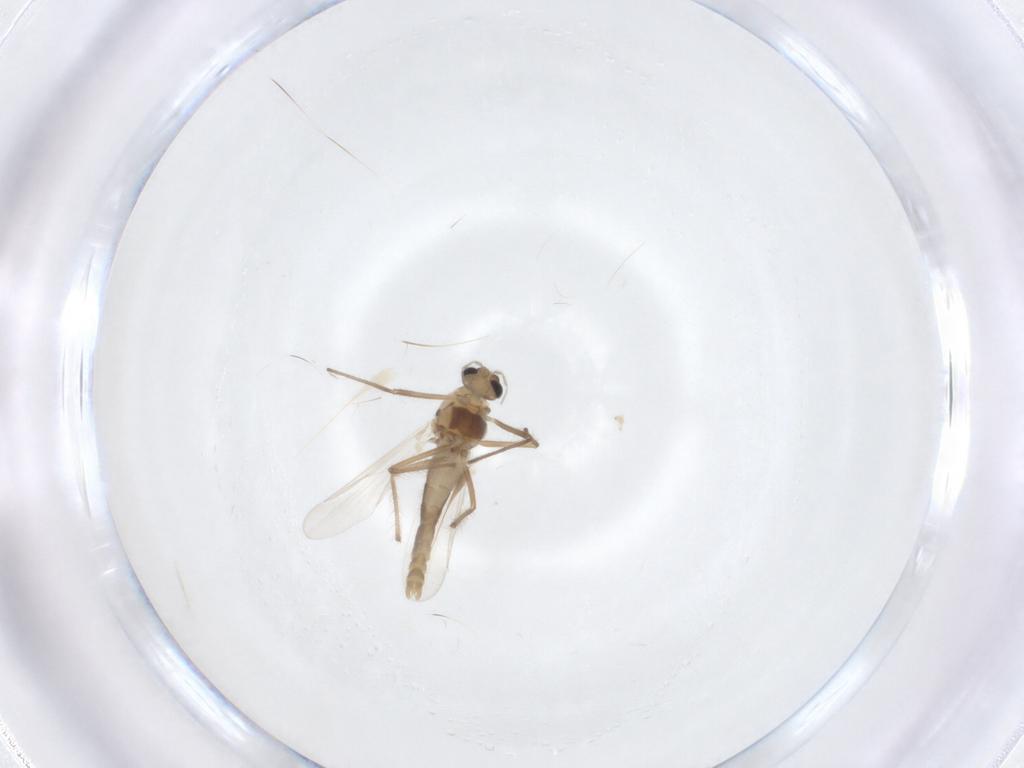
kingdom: Animalia
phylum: Arthropoda
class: Insecta
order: Diptera
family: Chironomidae
